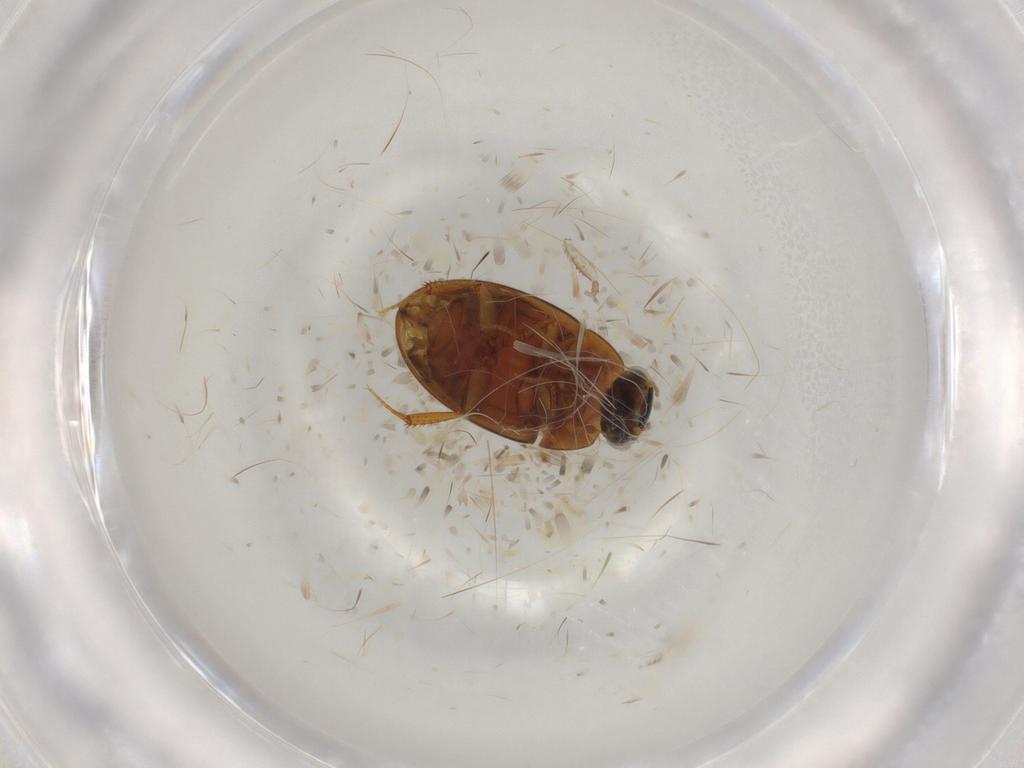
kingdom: Animalia
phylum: Arthropoda
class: Insecta
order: Coleoptera
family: Hydrophilidae
